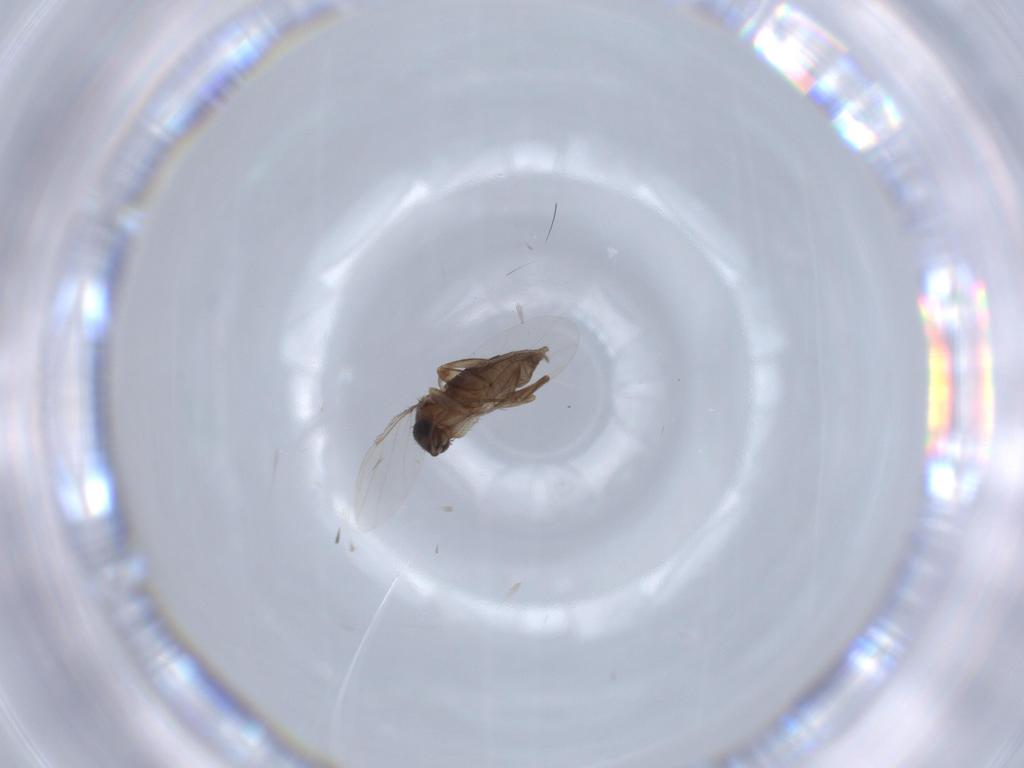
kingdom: Animalia
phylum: Arthropoda
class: Insecta
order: Diptera
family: Phoridae
